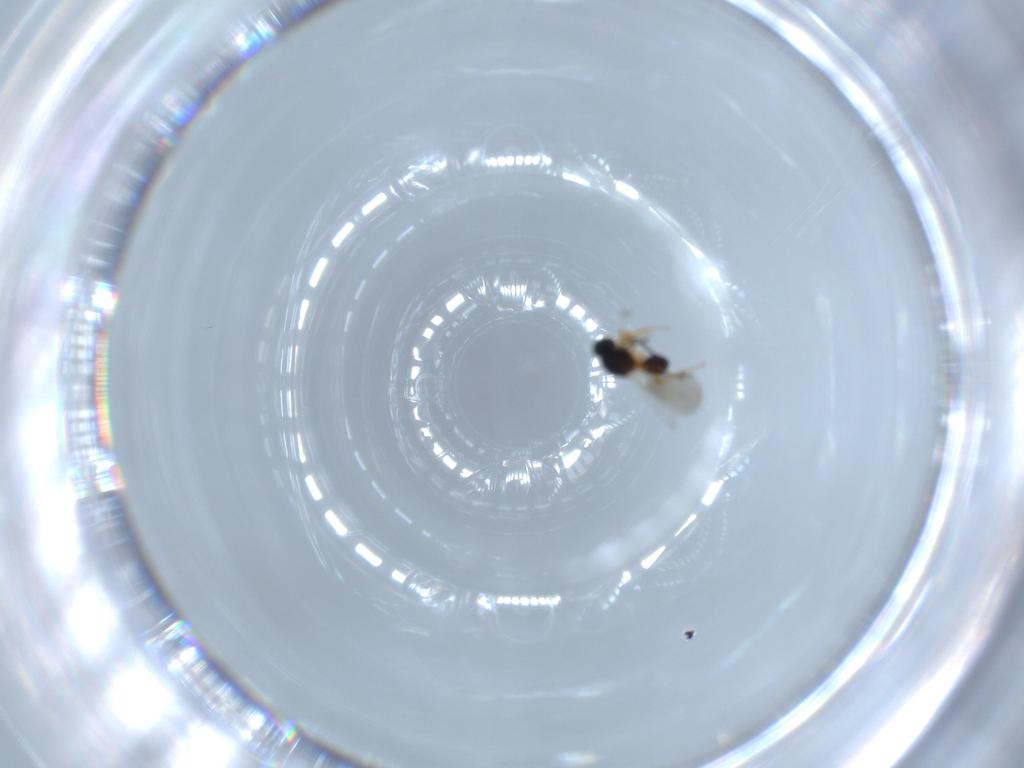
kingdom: Animalia
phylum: Arthropoda
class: Insecta
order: Hymenoptera
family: Platygastridae
